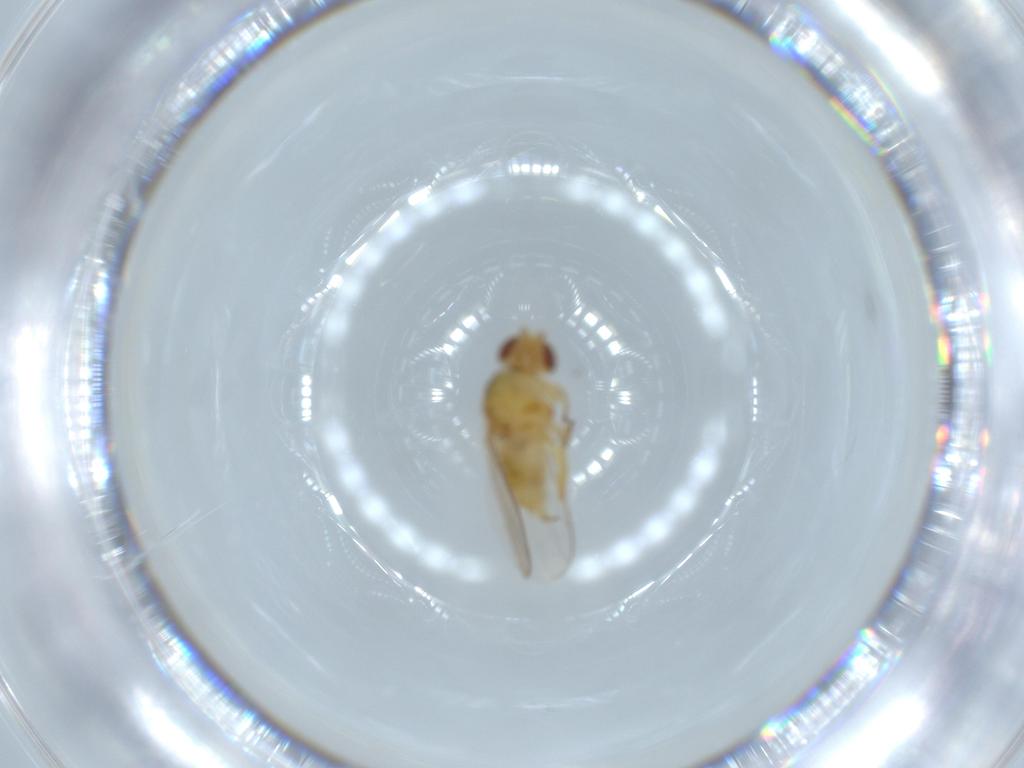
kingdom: Animalia
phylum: Arthropoda
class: Insecta
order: Diptera
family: Chloropidae
